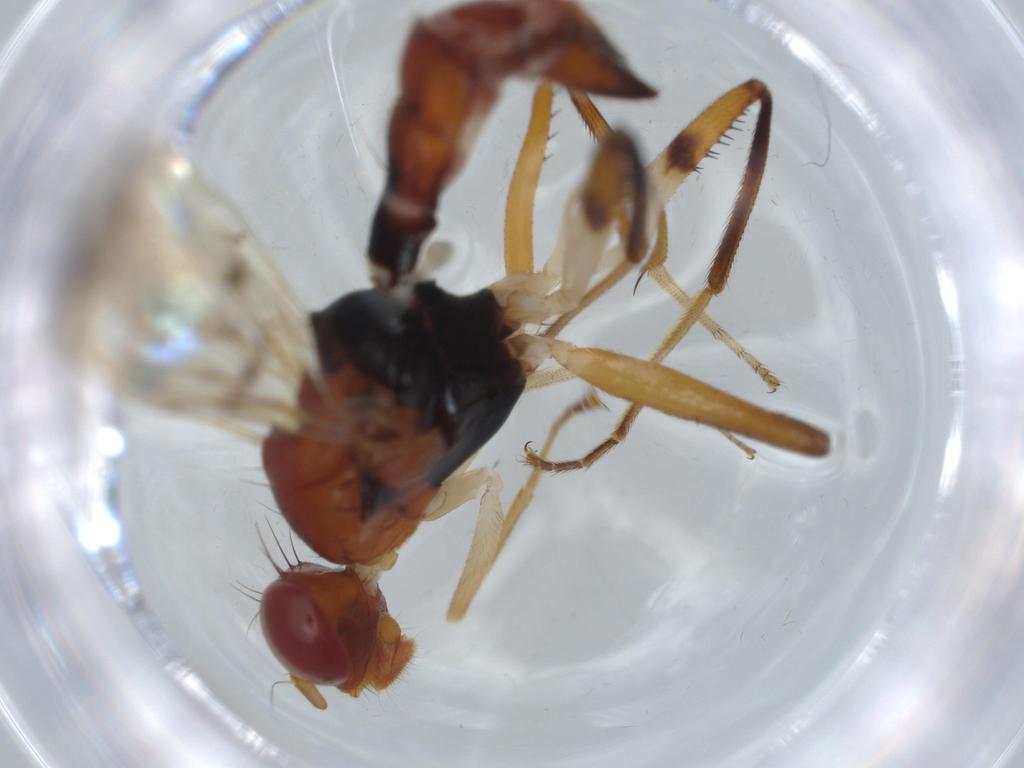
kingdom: Animalia
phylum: Arthropoda
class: Insecta
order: Diptera
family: Richardiidae
